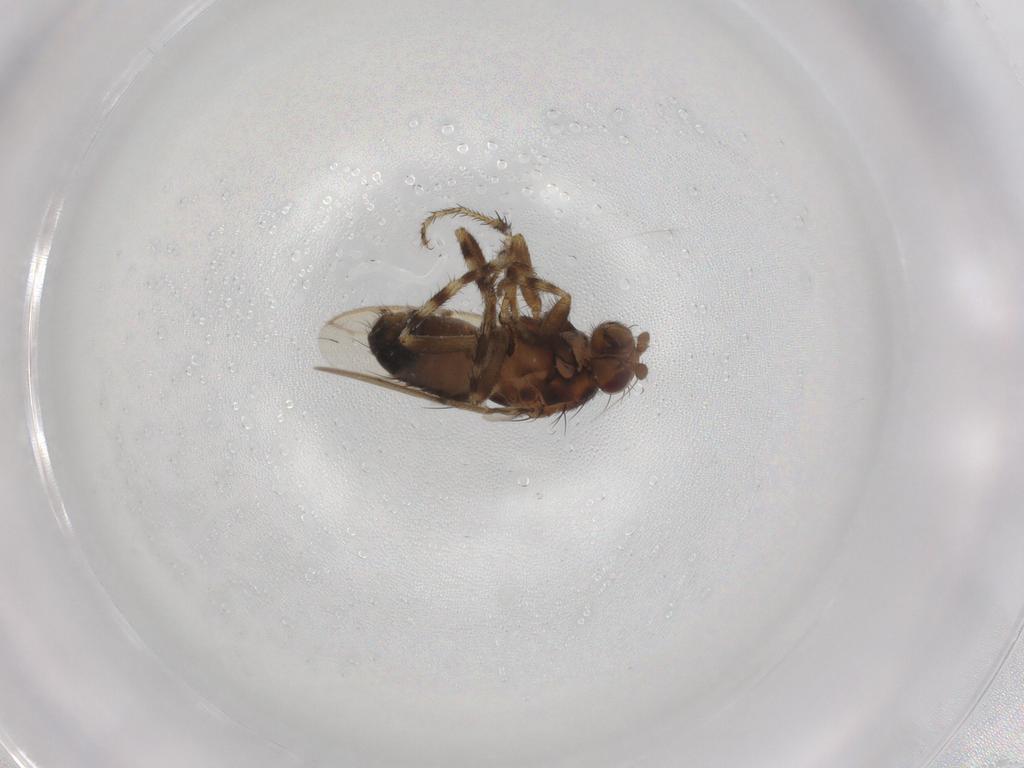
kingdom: Animalia
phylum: Arthropoda
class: Insecta
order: Diptera
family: Sphaeroceridae
